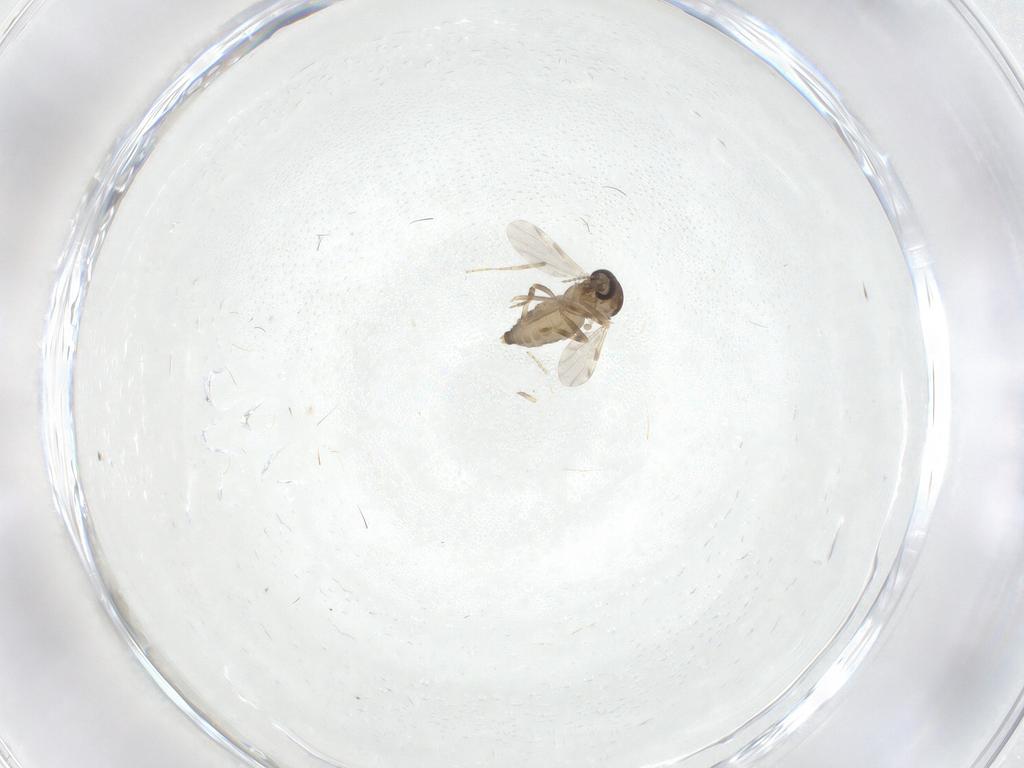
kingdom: Animalia
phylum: Arthropoda
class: Insecta
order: Diptera
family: Ceratopogonidae
